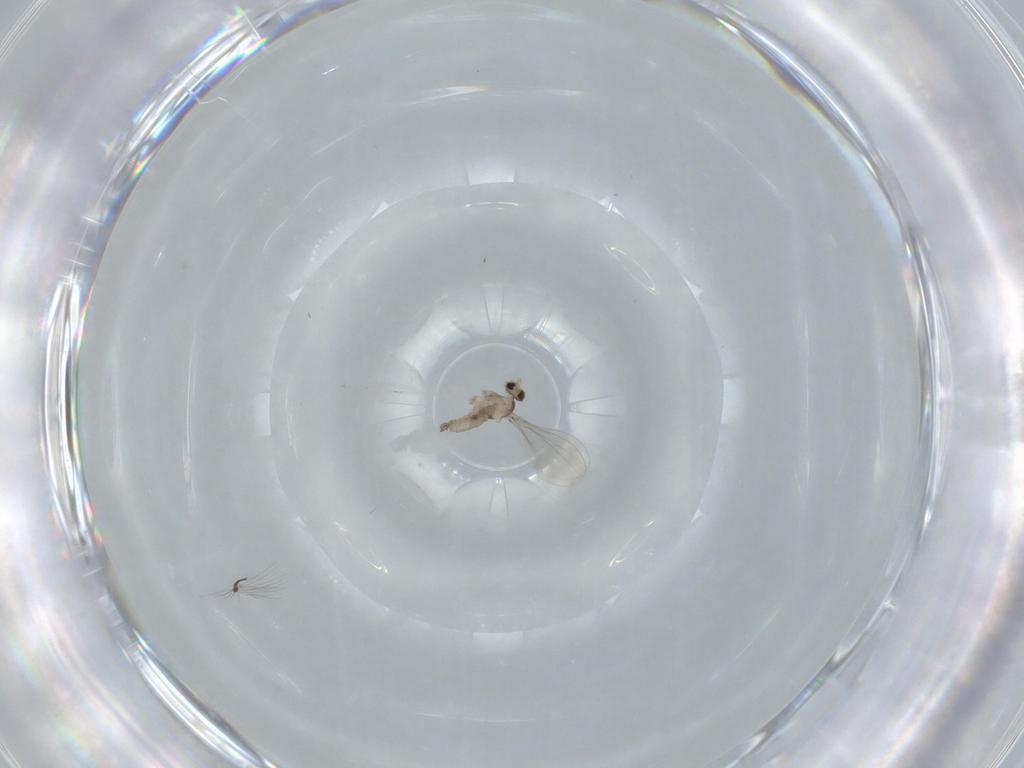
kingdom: Animalia
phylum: Arthropoda
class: Insecta
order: Diptera
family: Cecidomyiidae
